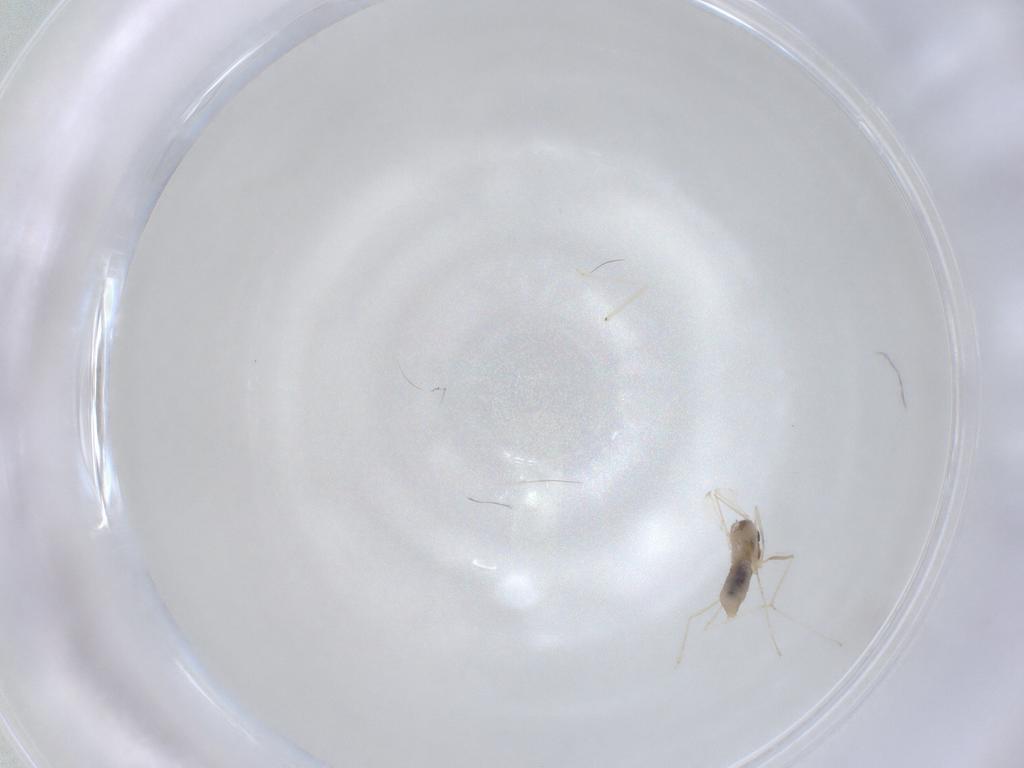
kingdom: Animalia
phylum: Arthropoda
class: Insecta
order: Diptera
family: Cecidomyiidae
